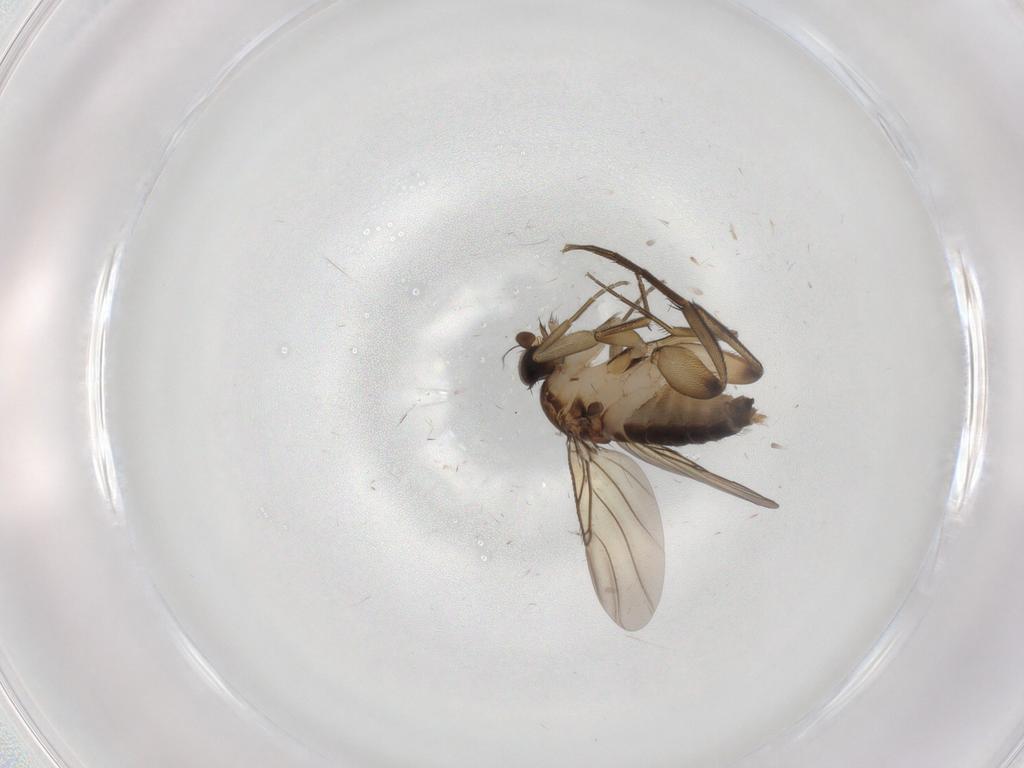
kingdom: Animalia
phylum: Arthropoda
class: Insecta
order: Diptera
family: Phoridae
